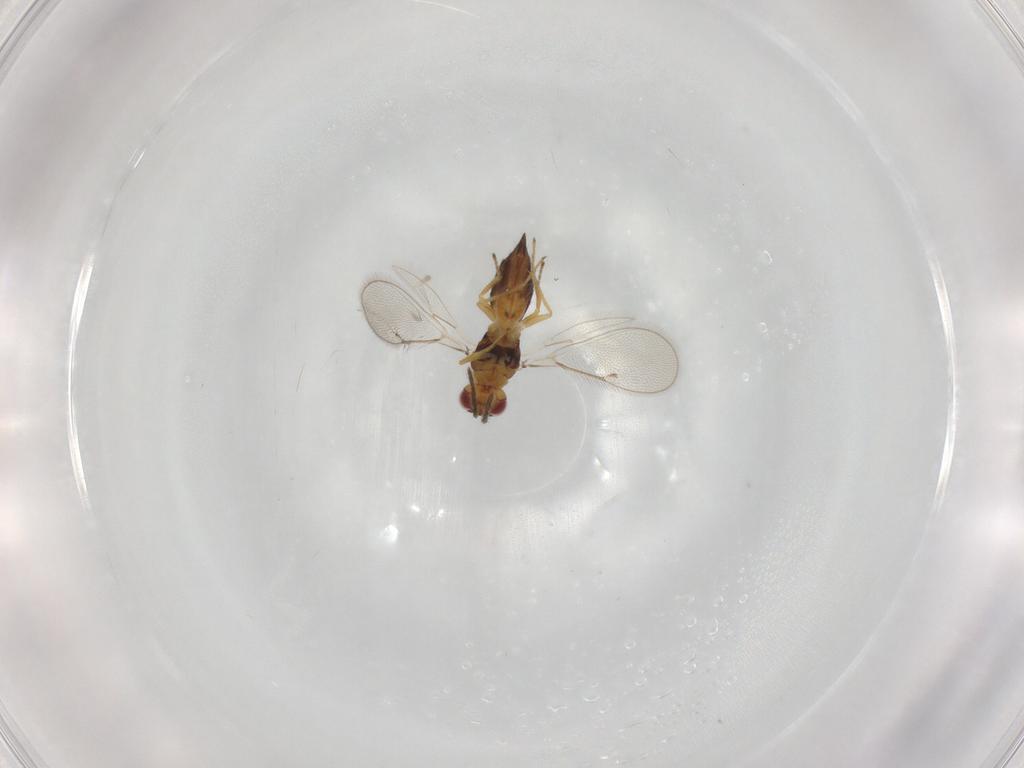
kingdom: Animalia
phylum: Arthropoda
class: Insecta
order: Hymenoptera
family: Eulophidae
